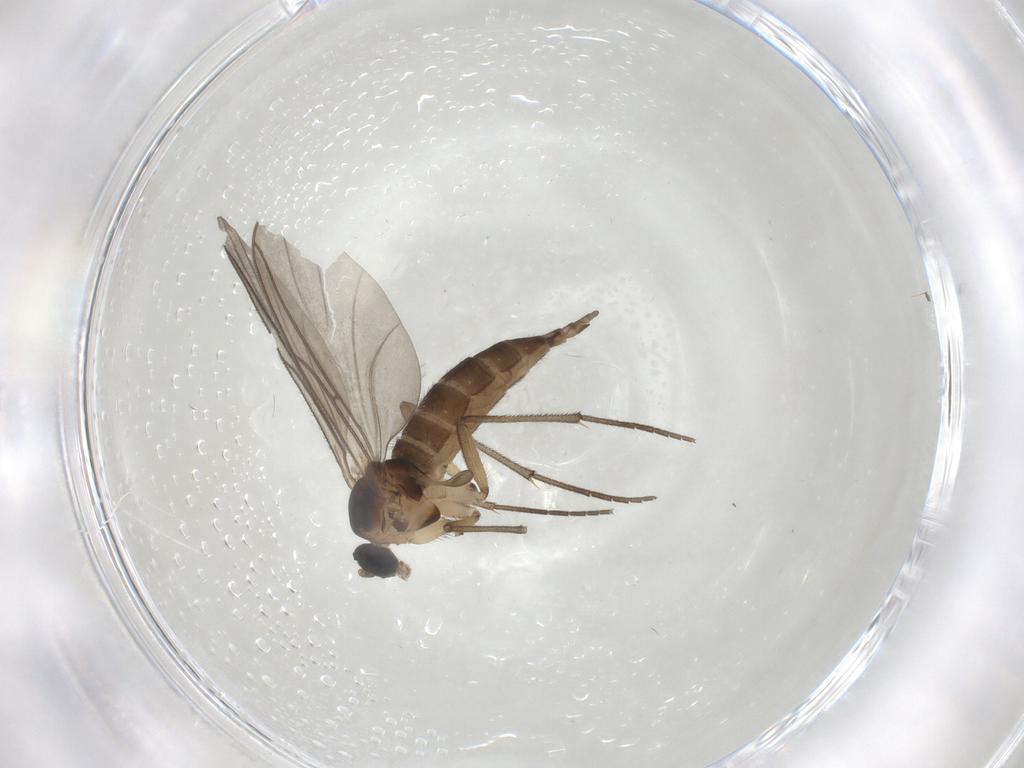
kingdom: Animalia
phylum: Arthropoda
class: Insecta
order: Diptera
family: Sciaridae
